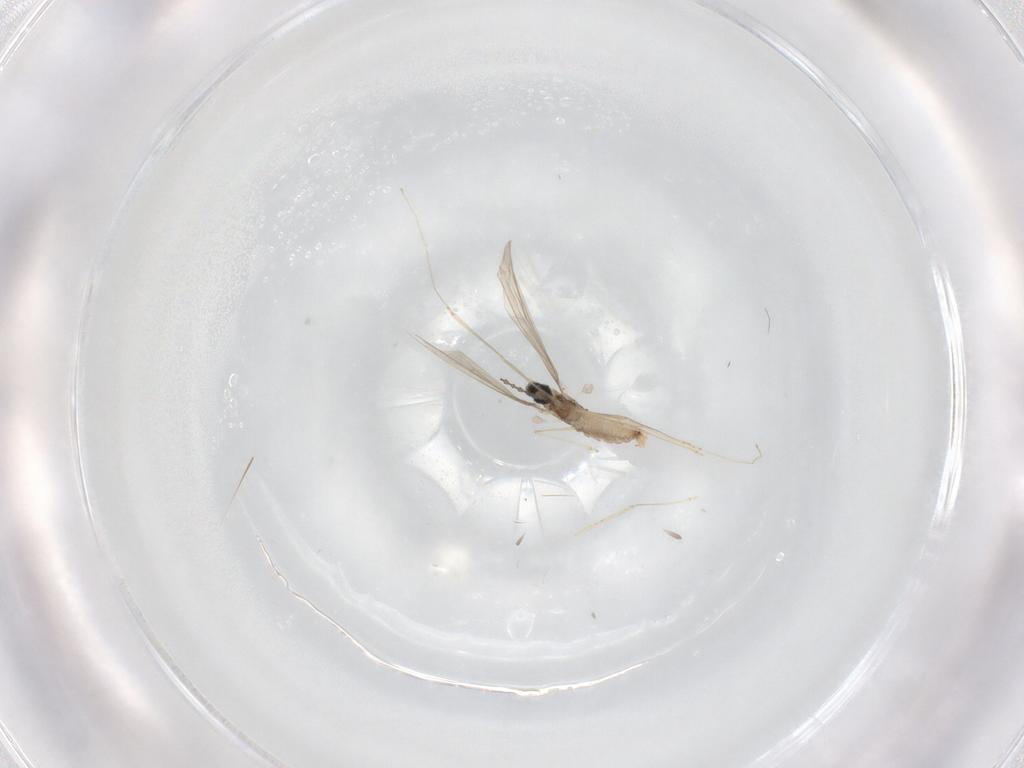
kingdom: Animalia
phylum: Arthropoda
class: Insecta
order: Diptera
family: Cecidomyiidae
